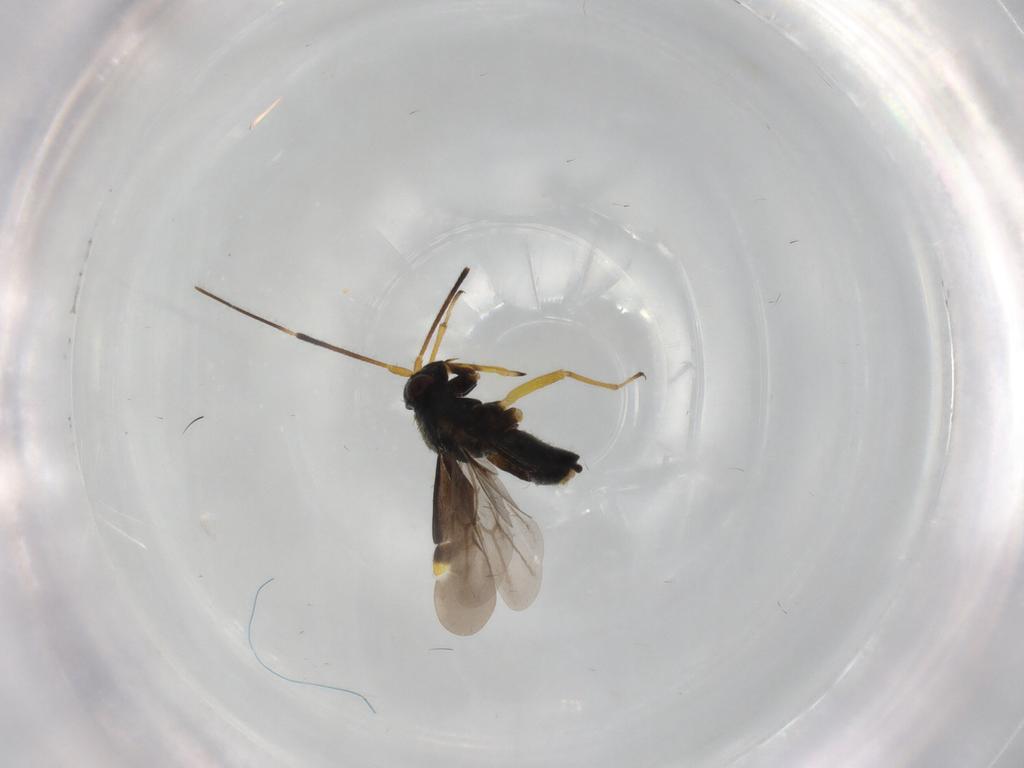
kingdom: Animalia
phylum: Arthropoda
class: Insecta
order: Hemiptera
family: Miridae
